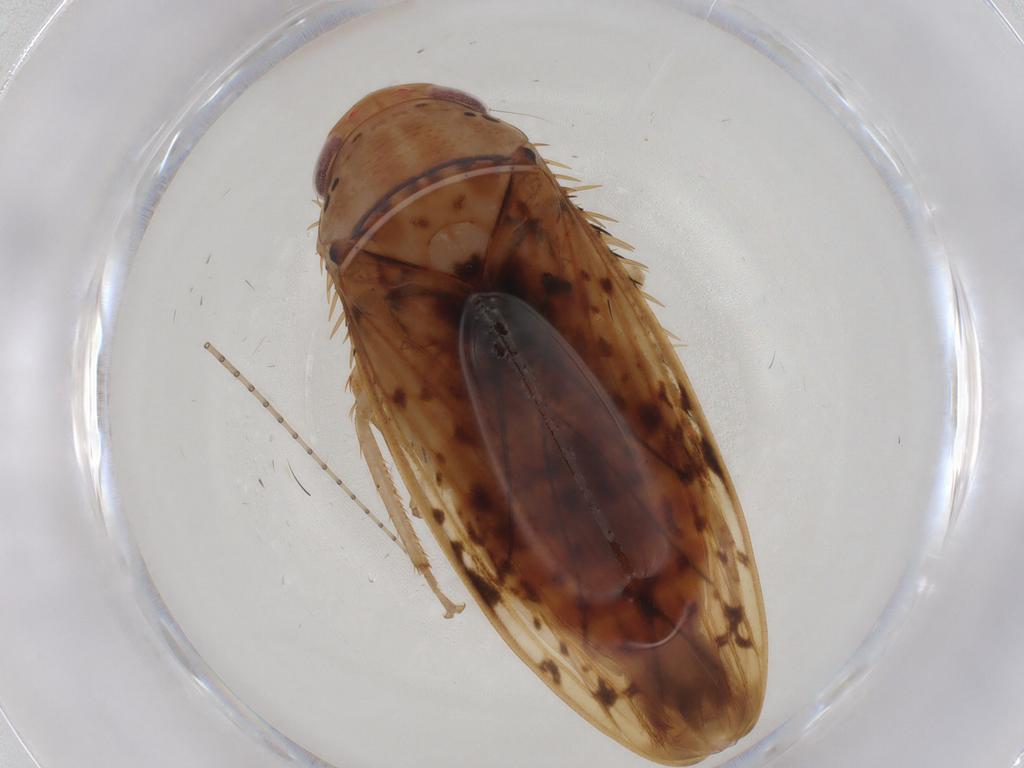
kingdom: Animalia
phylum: Arthropoda
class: Insecta
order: Hemiptera
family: Cicadellidae
